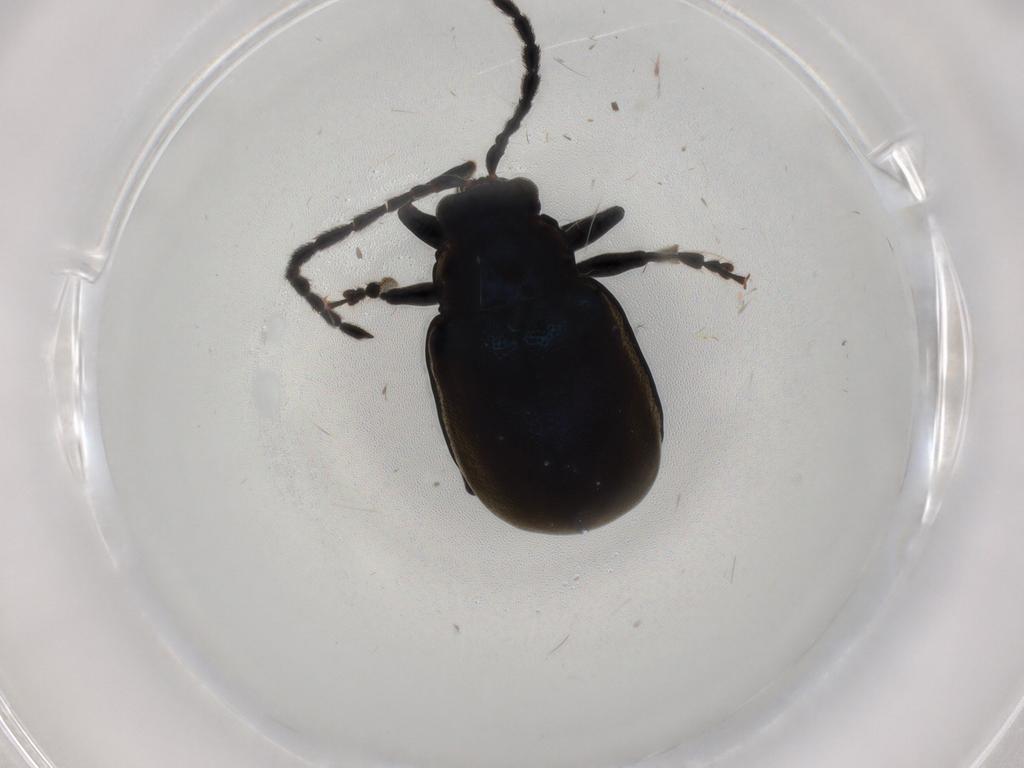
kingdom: Animalia
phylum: Arthropoda
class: Insecta
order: Coleoptera
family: Chrysomelidae
